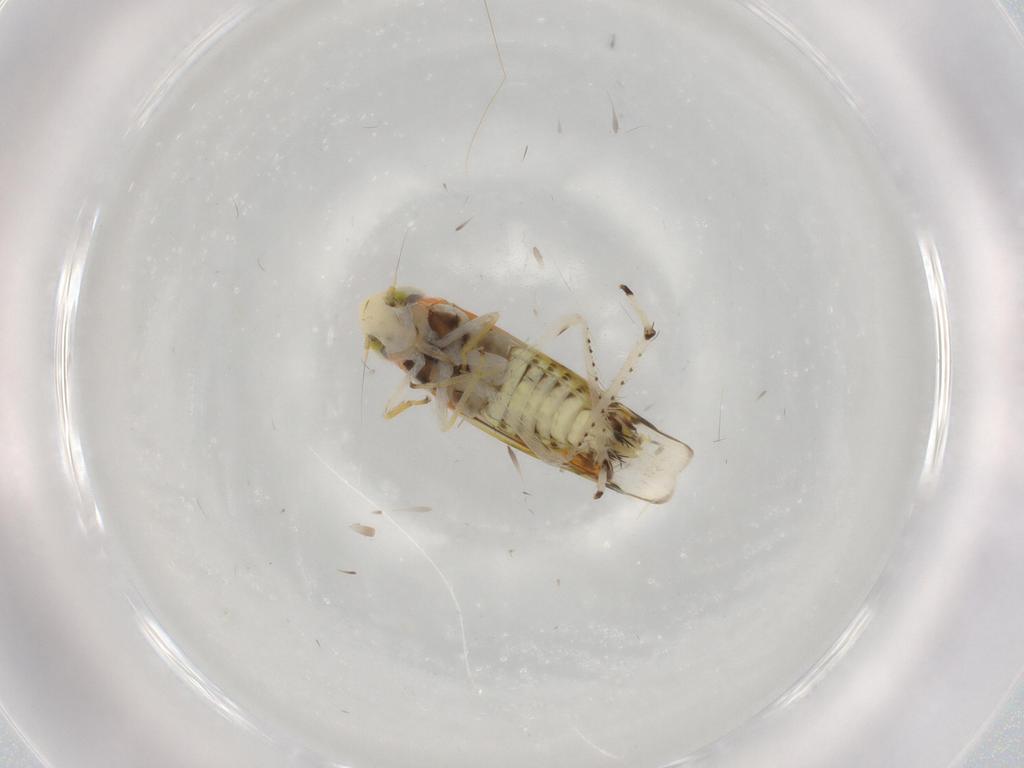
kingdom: Animalia
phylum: Arthropoda
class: Insecta
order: Hemiptera
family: Cicadellidae
